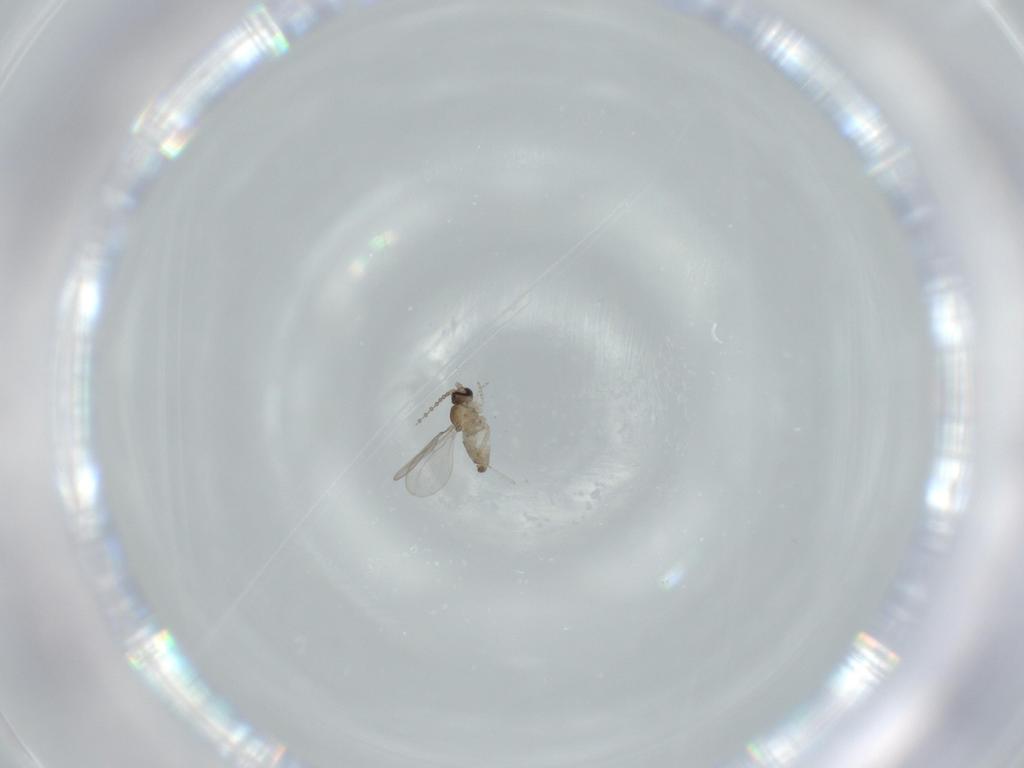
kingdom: Animalia
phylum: Arthropoda
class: Insecta
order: Diptera
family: Cecidomyiidae
